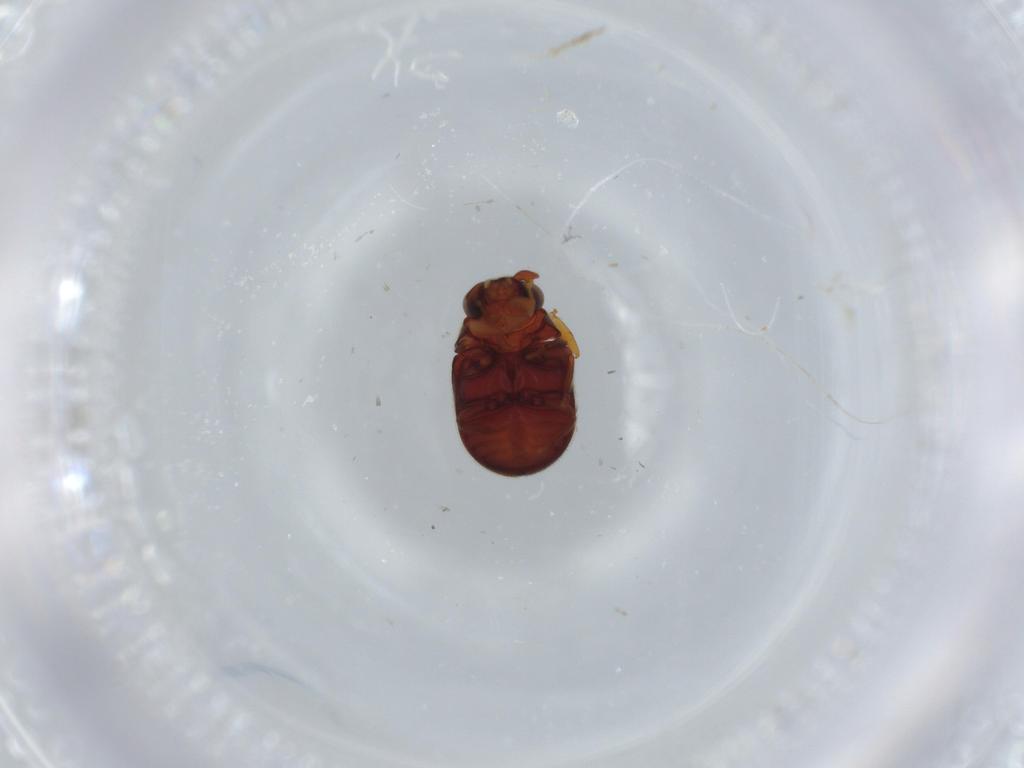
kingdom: Animalia
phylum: Arthropoda
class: Insecta
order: Coleoptera
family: Ptinidae
